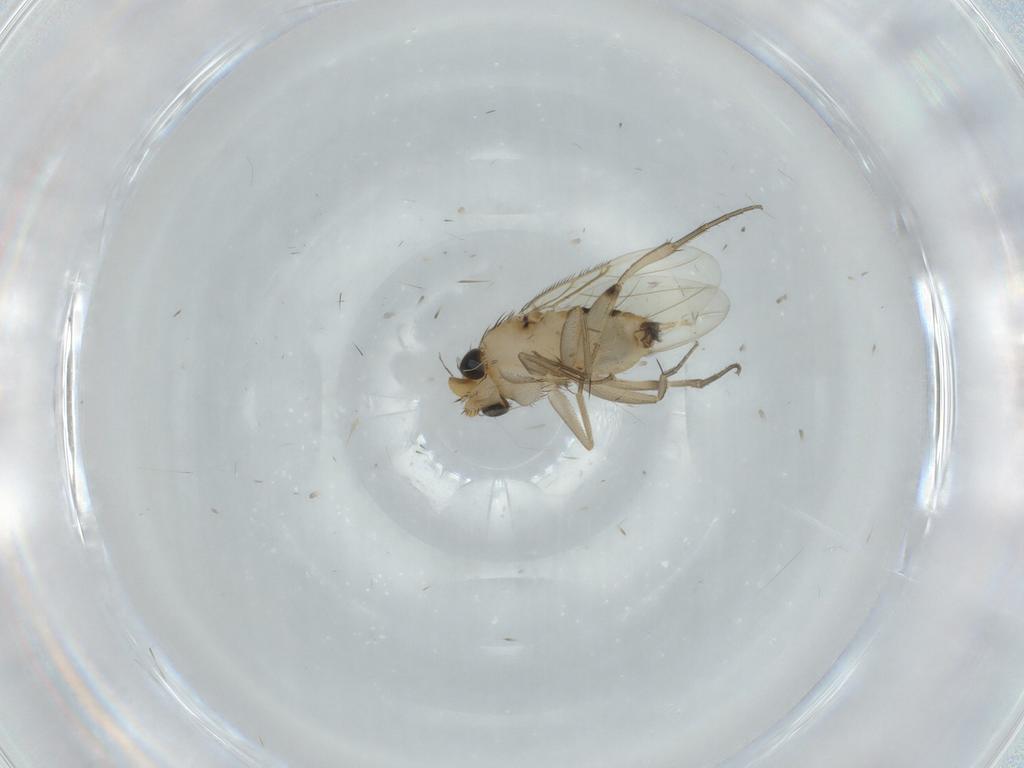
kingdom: Animalia
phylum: Arthropoda
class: Insecta
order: Diptera
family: Phoridae
